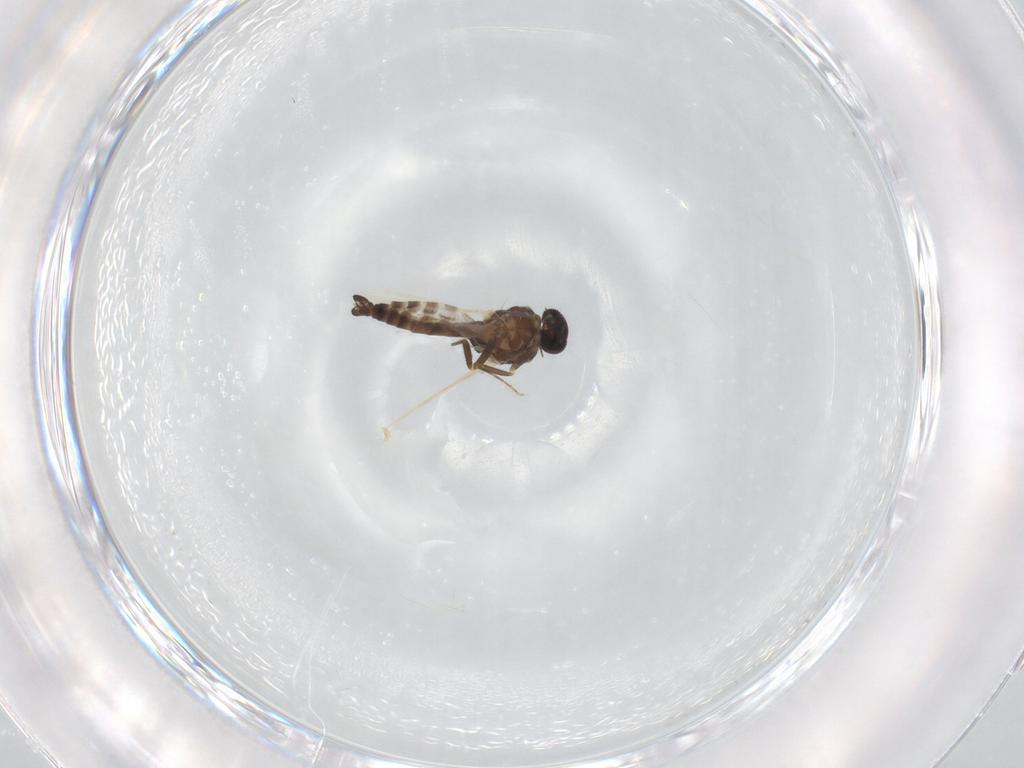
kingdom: Animalia
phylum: Arthropoda
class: Insecta
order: Diptera
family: Ceratopogonidae
